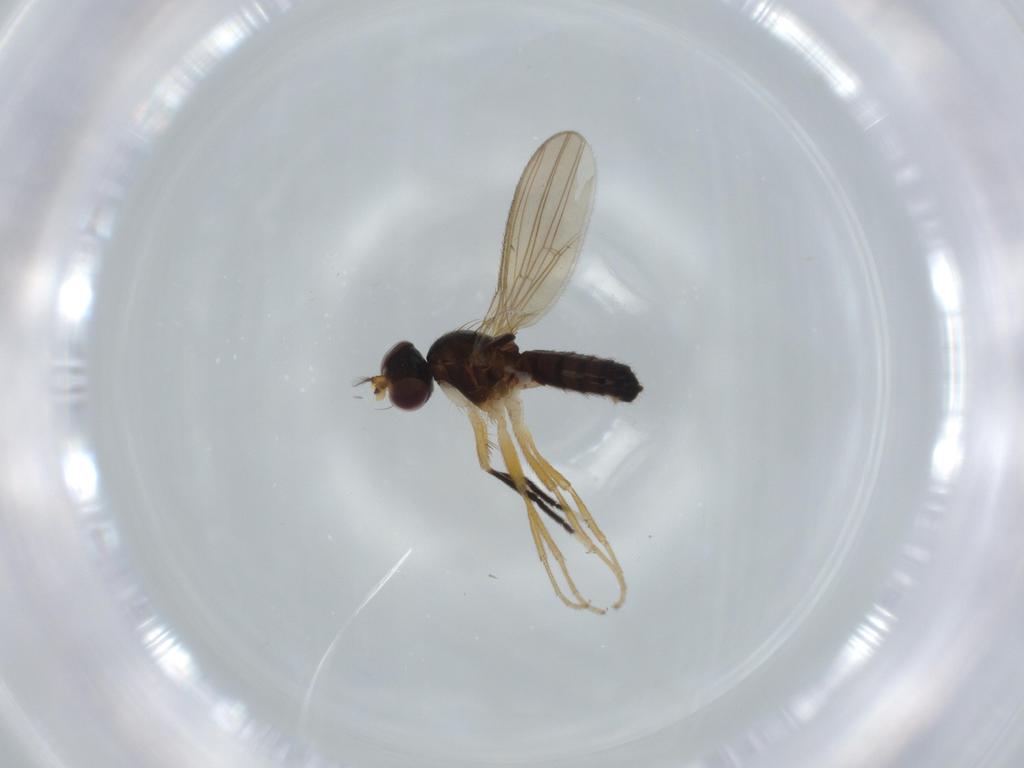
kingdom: Animalia
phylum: Arthropoda
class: Insecta
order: Diptera
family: Anthomyzidae
